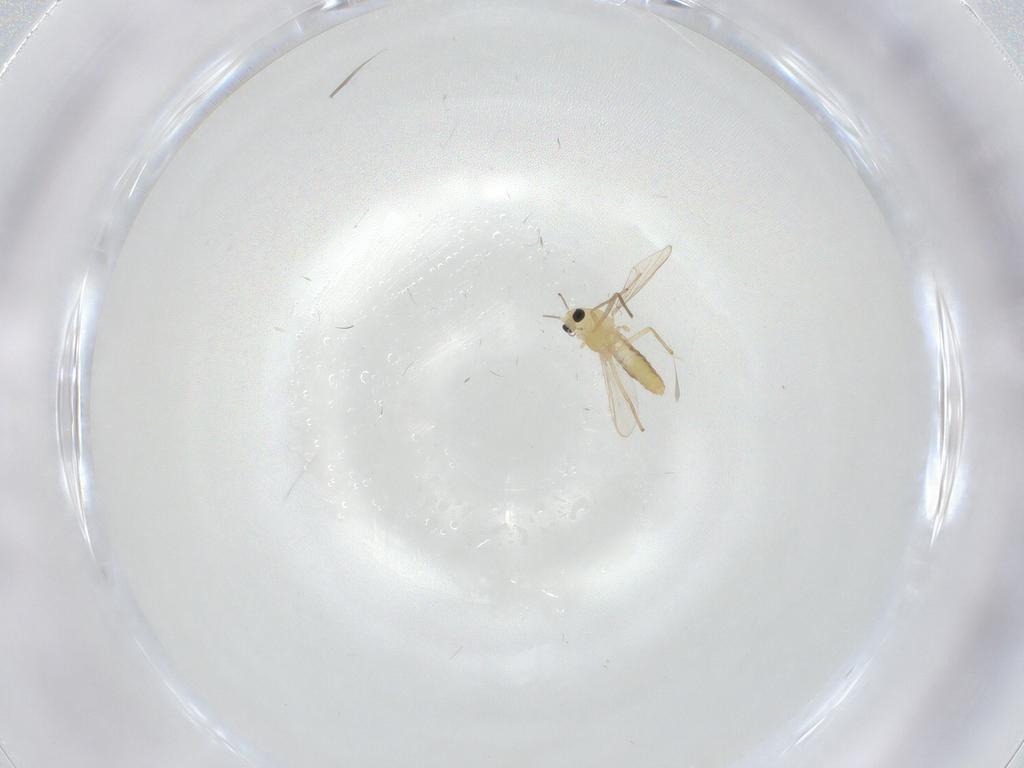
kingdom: Animalia
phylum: Arthropoda
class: Insecta
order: Diptera
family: Chironomidae
